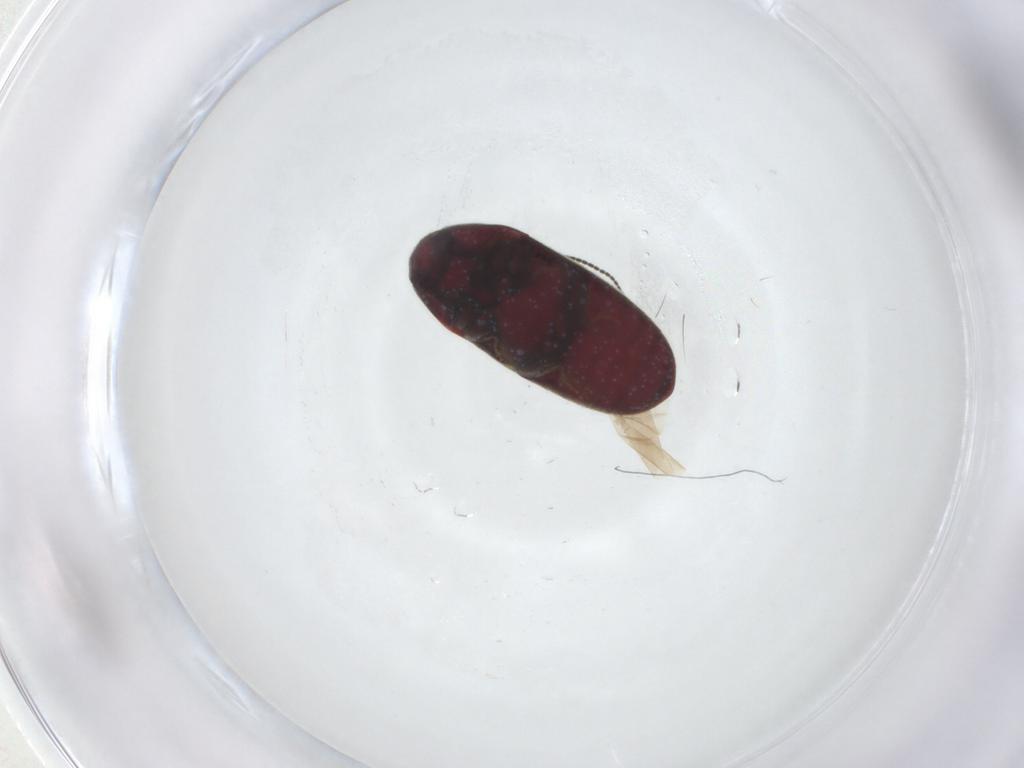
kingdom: Animalia
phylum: Arthropoda
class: Insecta
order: Coleoptera
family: Throscidae
